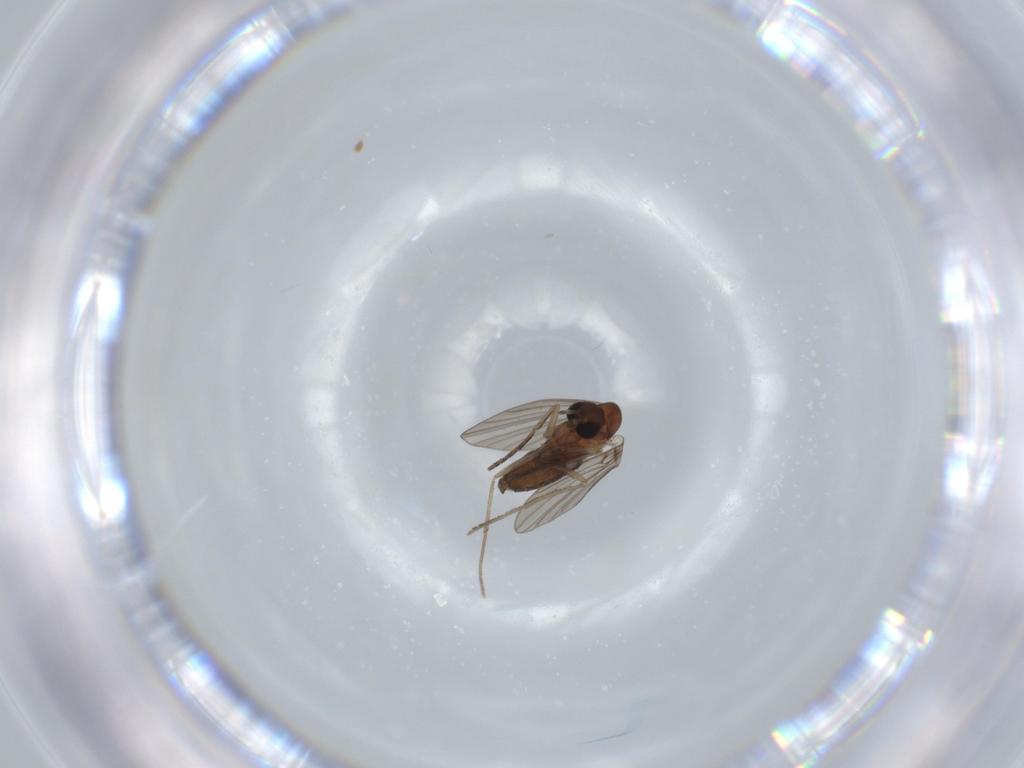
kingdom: Animalia
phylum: Arthropoda
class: Insecta
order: Diptera
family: Psychodidae
